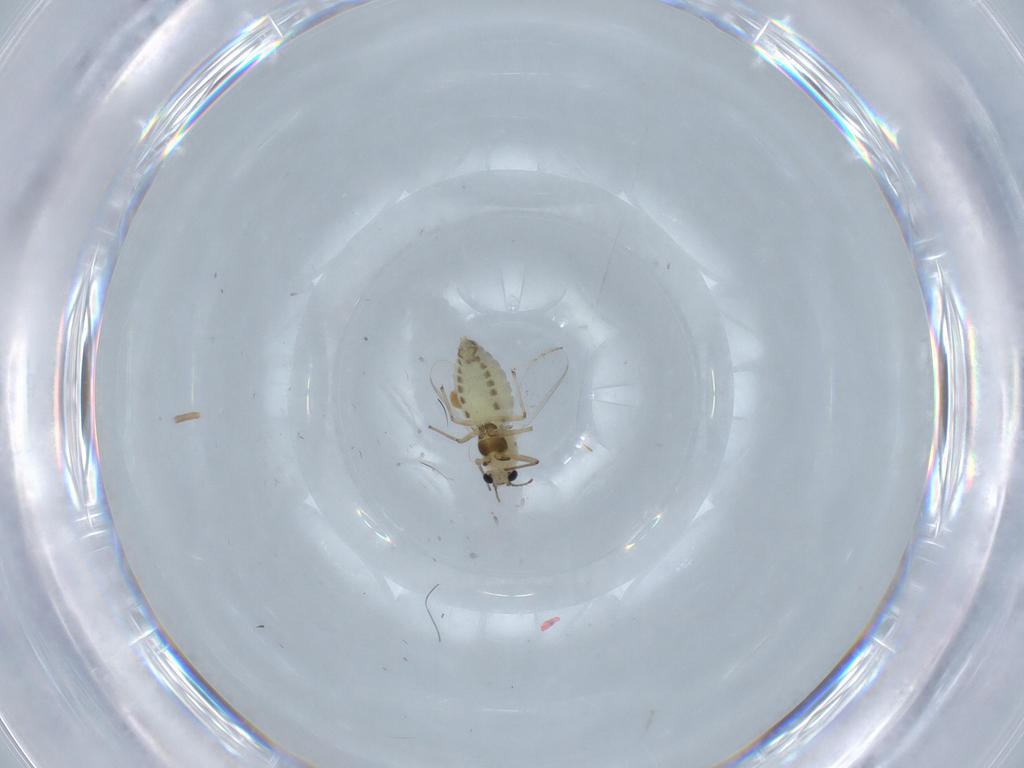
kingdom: Animalia
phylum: Arthropoda
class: Insecta
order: Diptera
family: Chironomidae
